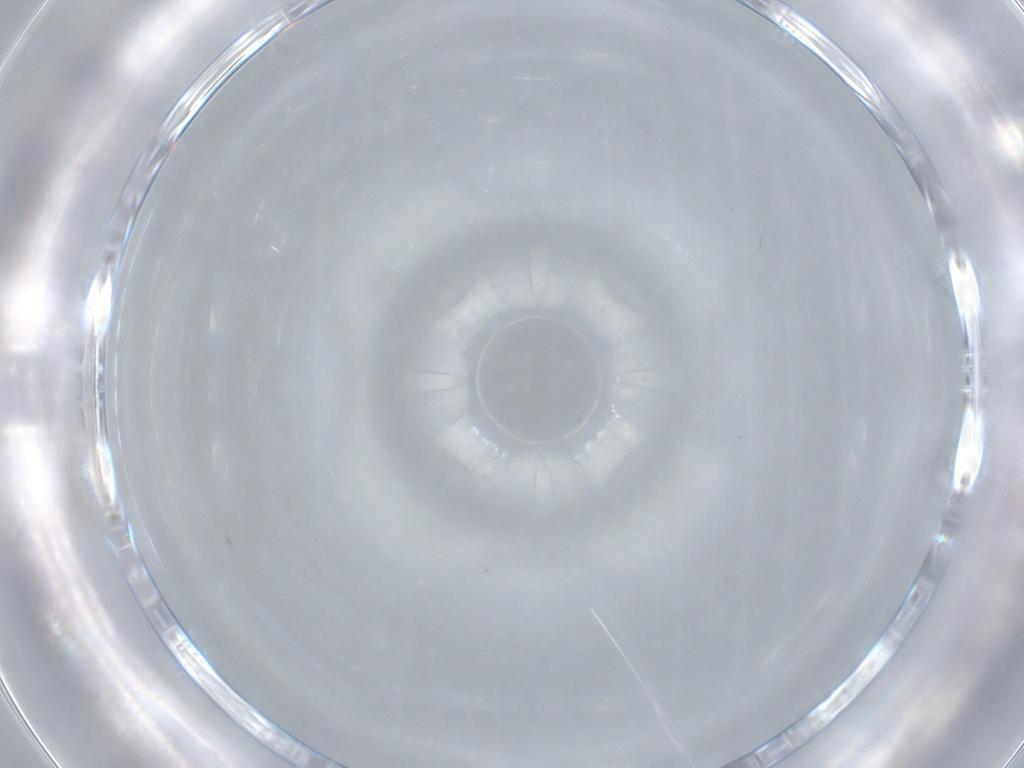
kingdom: Animalia
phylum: Arthropoda
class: Insecta
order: Diptera
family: Cecidomyiidae
